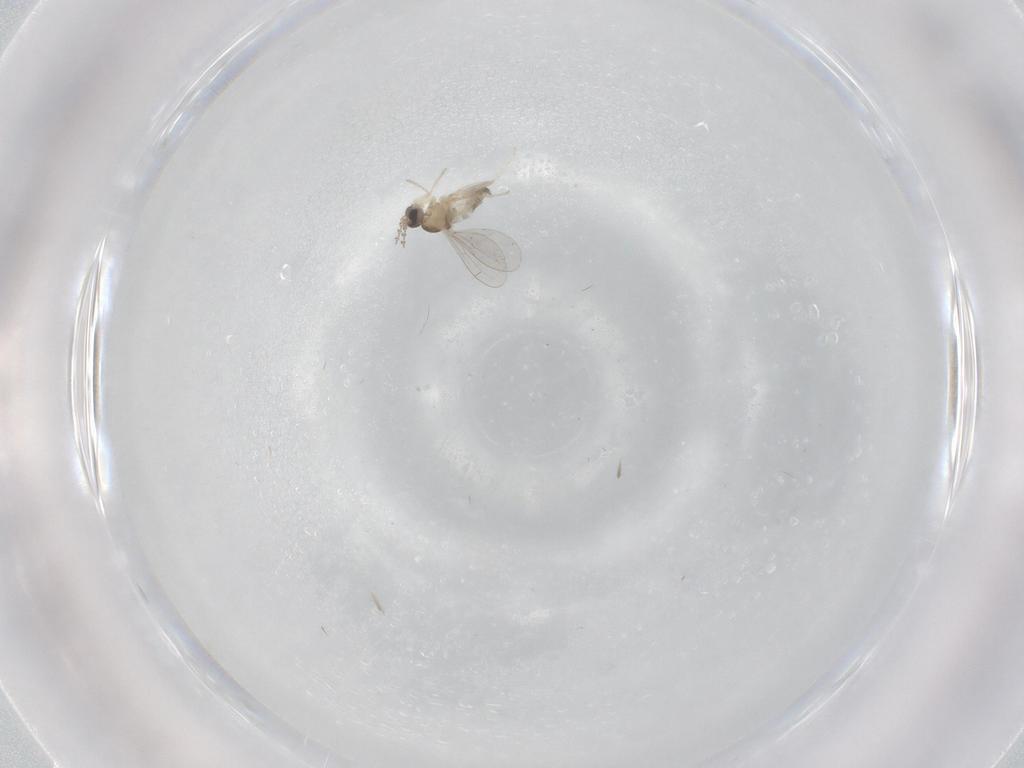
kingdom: Animalia
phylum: Arthropoda
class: Insecta
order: Diptera
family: Cecidomyiidae
